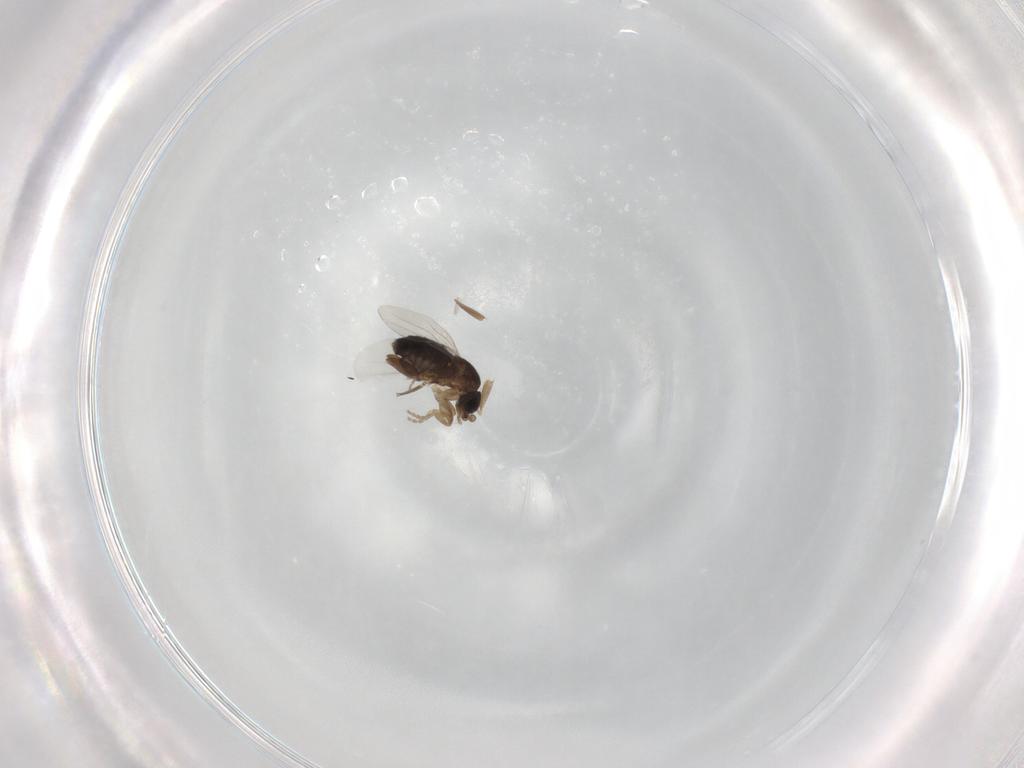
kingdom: Animalia
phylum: Arthropoda
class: Insecta
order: Diptera
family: Phoridae
